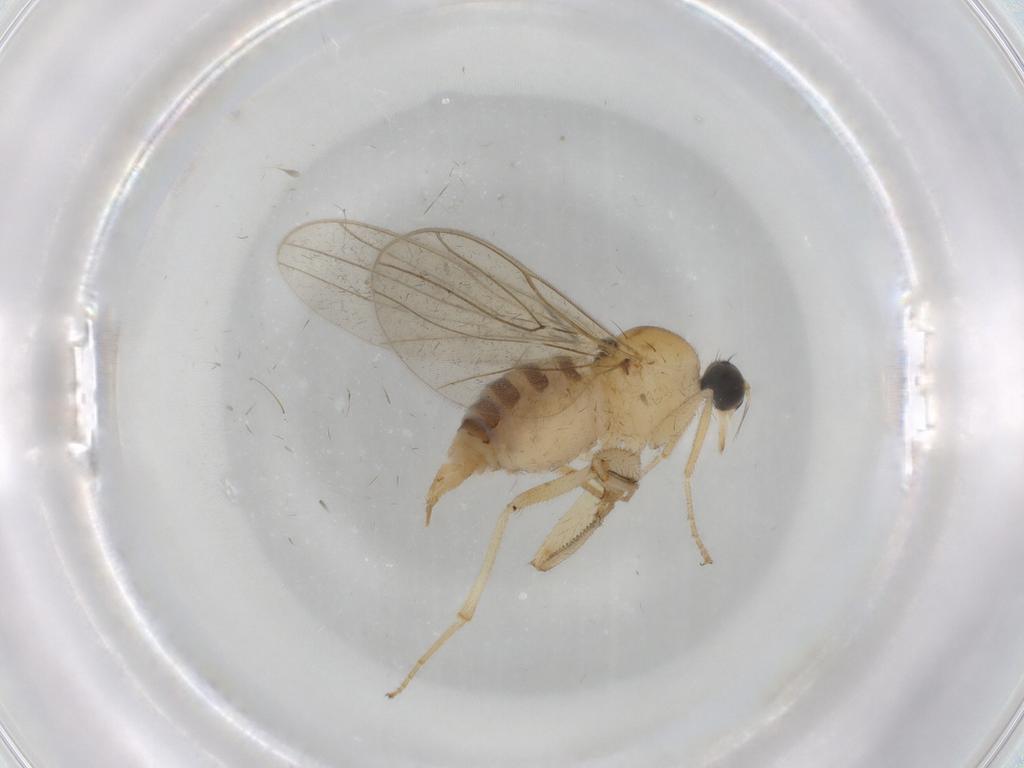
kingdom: Animalia
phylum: Arthropoda
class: Insecta
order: Diptera
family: Hybotidae
